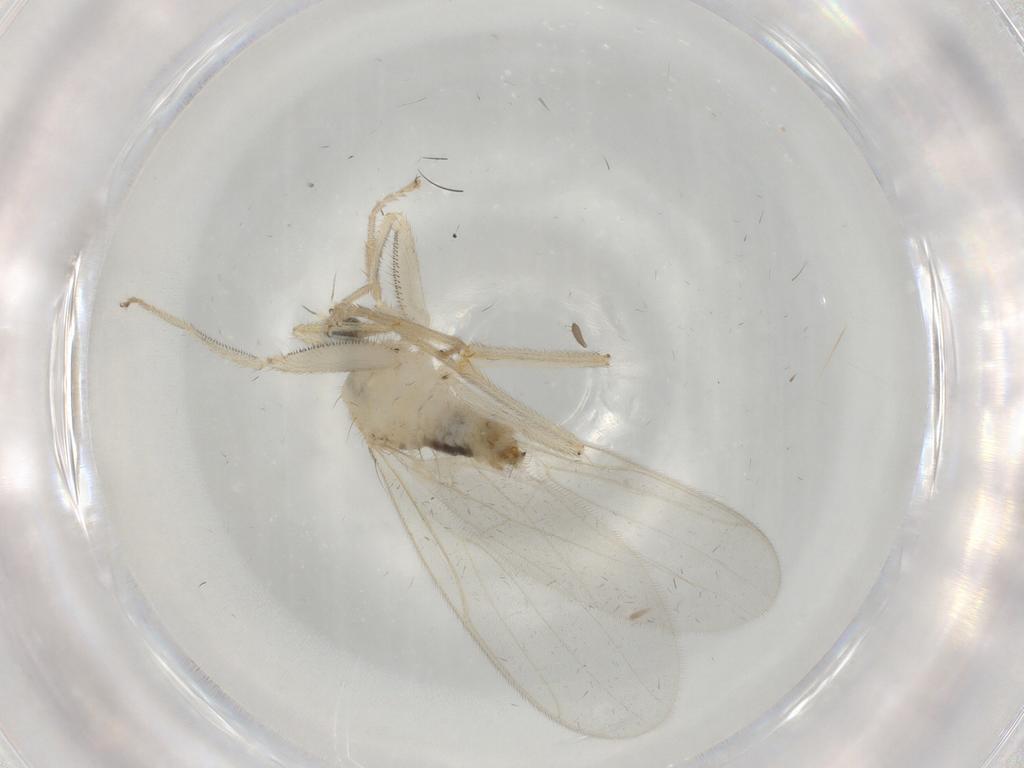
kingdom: Animalia
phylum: Arthropoda
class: Insecta
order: Diptera
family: Hybotidae
